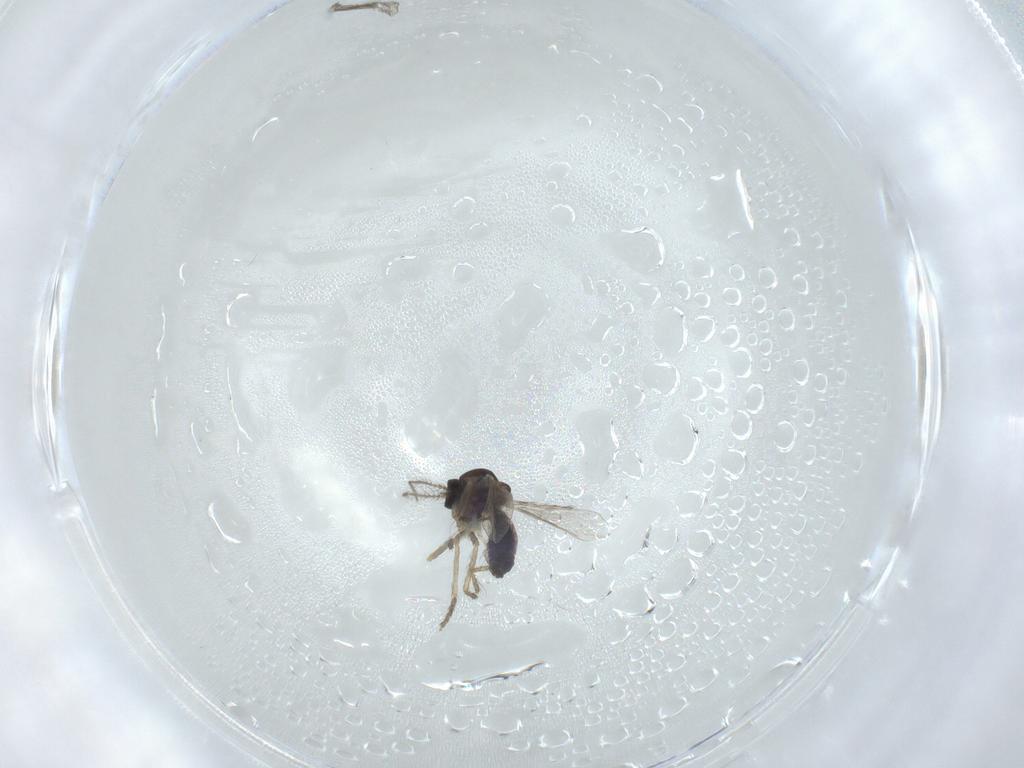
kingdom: Animalia
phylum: Arthropoda
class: Insecta
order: Diptera
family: Ceratopogonidae
